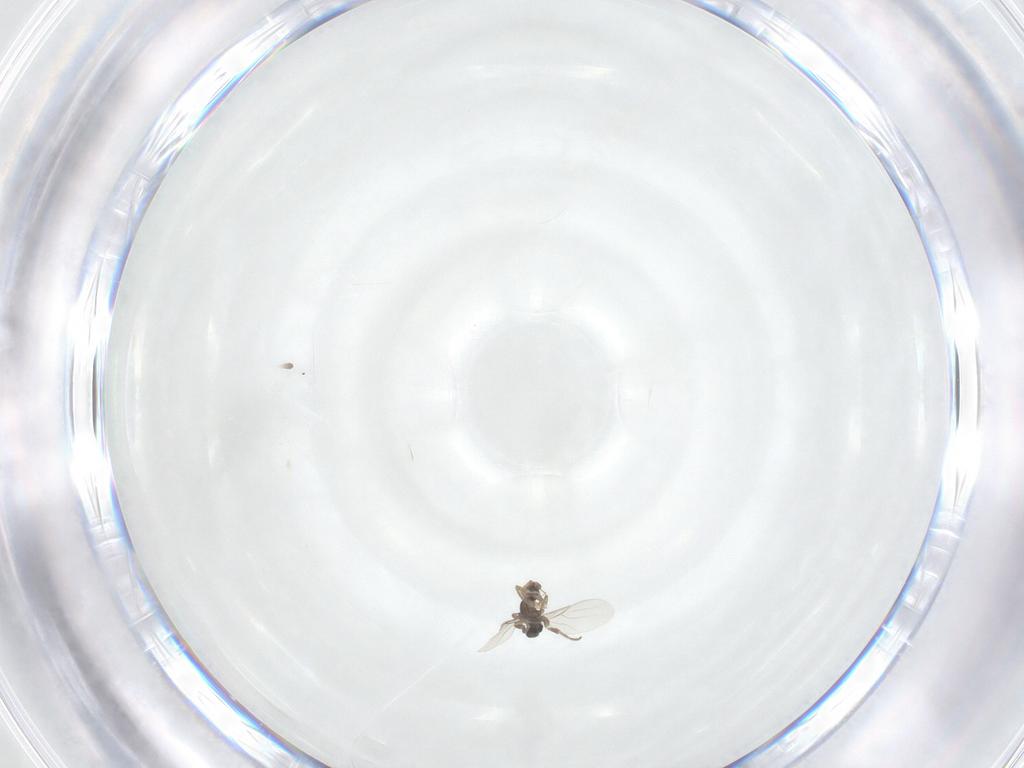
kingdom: Animalia
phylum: Arthropoda
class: Insecta
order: Diptera
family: Phoridae
